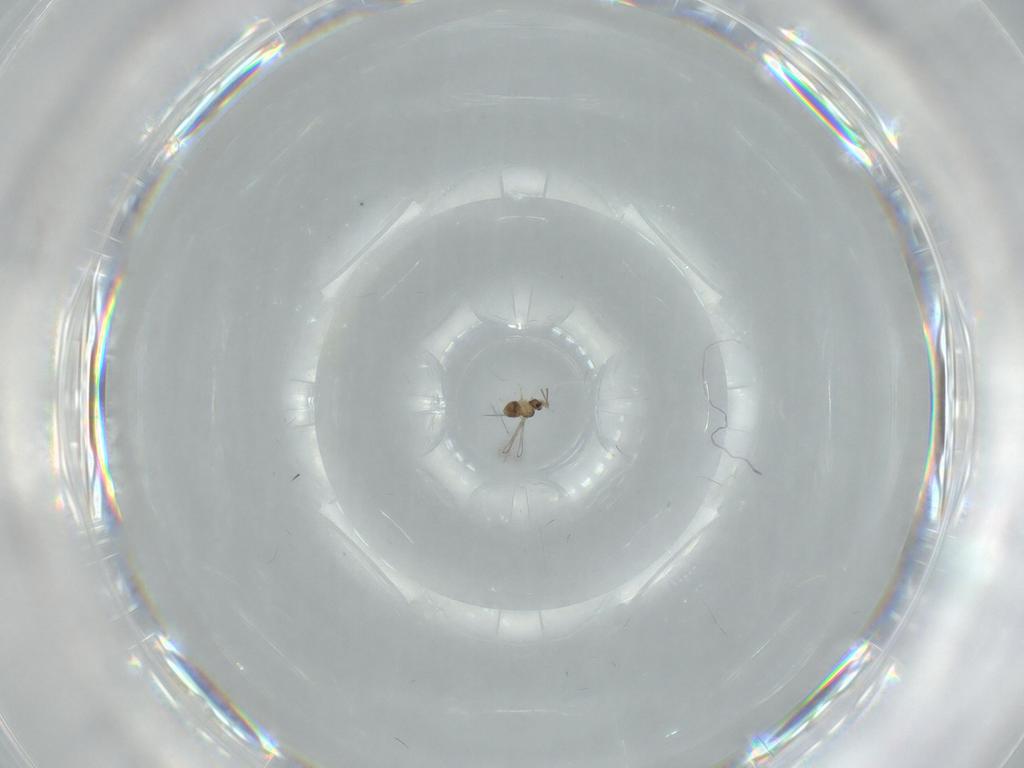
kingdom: Animalia
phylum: Arthropoda
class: Insecta
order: Hymenoptera
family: Mymaridae
